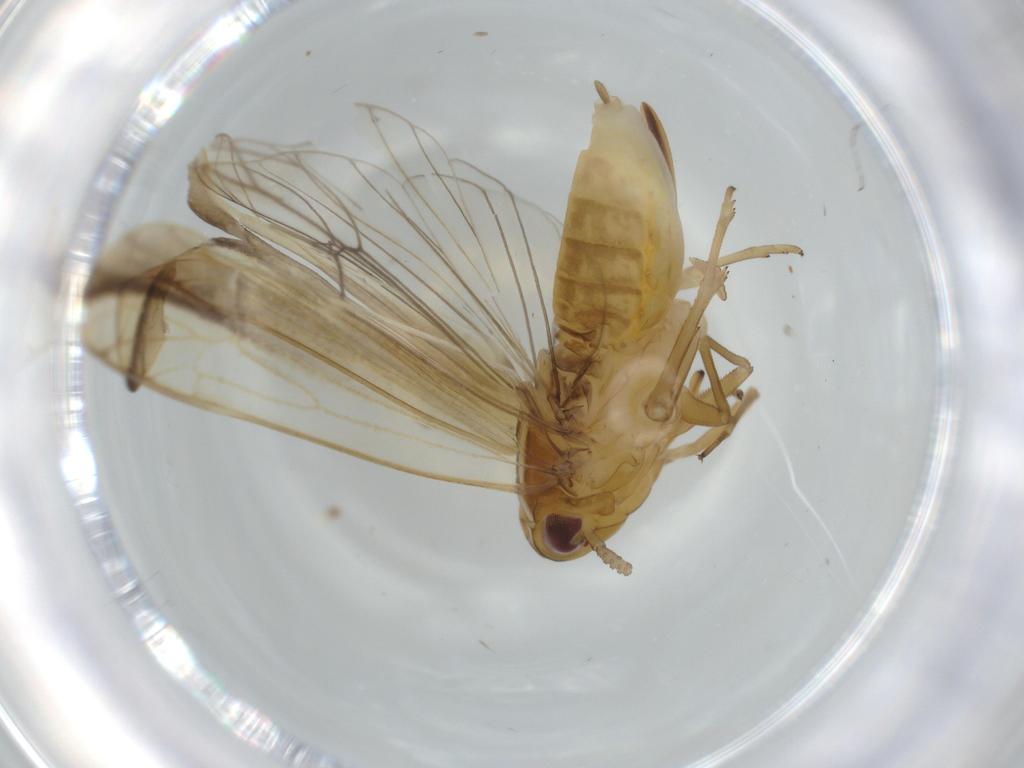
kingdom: Animalia
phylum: Arthropoda
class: Insecta
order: Hemiptera
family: Delphacidae
